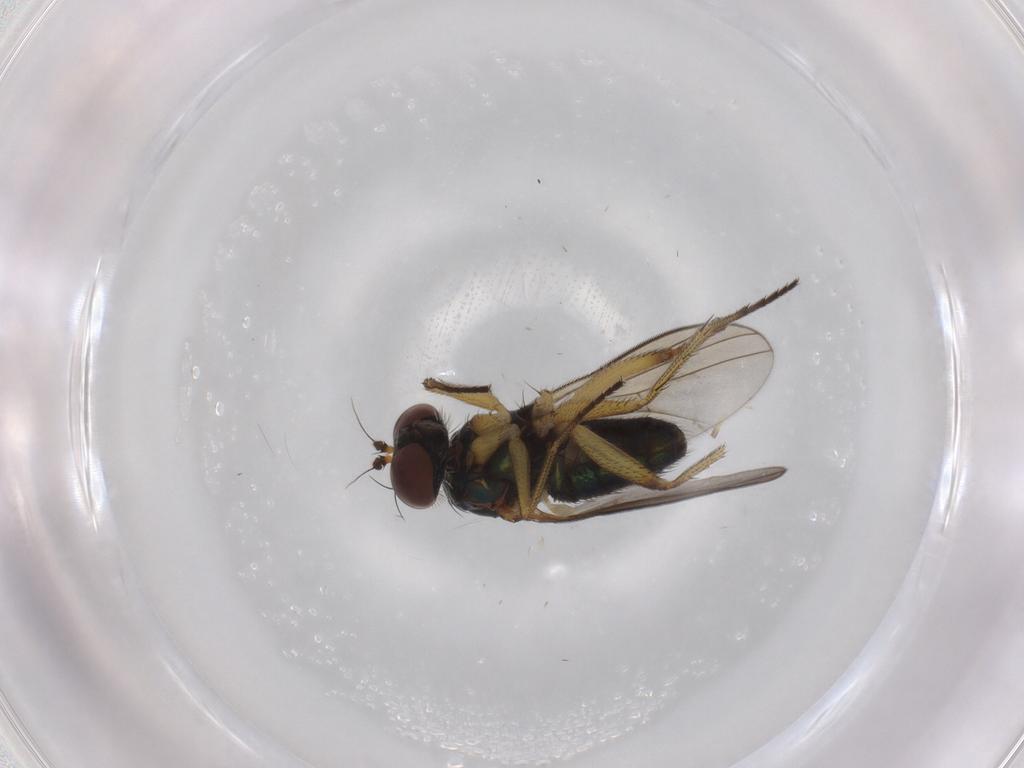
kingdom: Animalia
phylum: Arthropoda
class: Insecta
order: Diptera
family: Dolichopodidae
